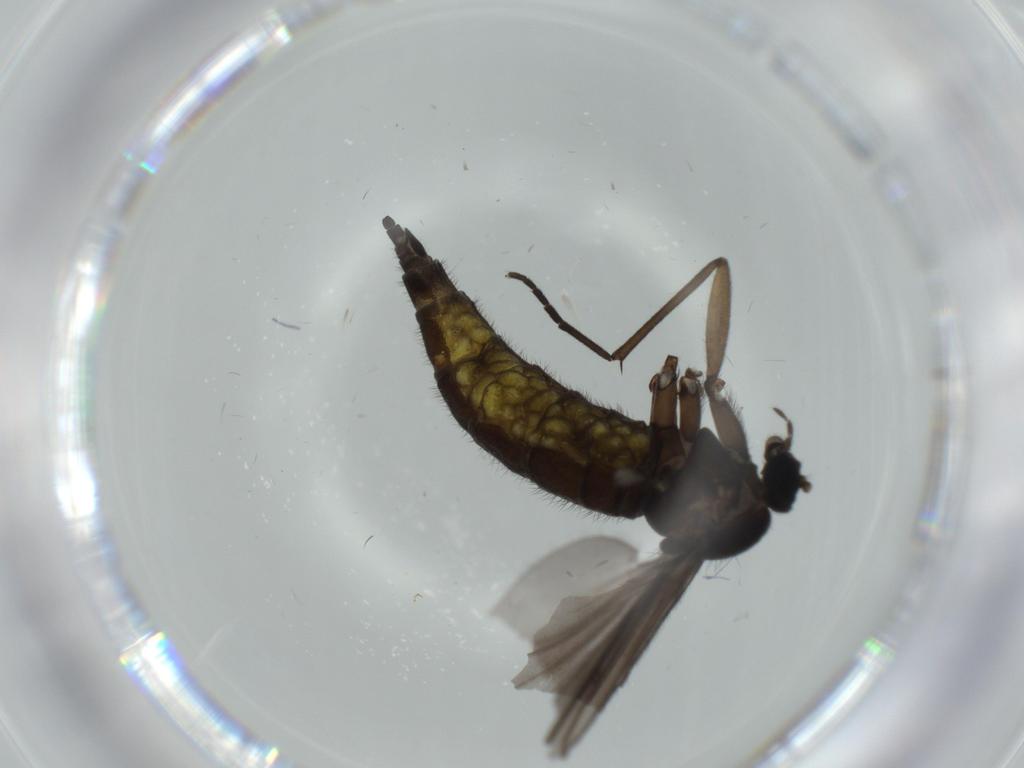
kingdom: Animalia
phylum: Arthropoda
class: Insecta
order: Diptera
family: Sciaridae
